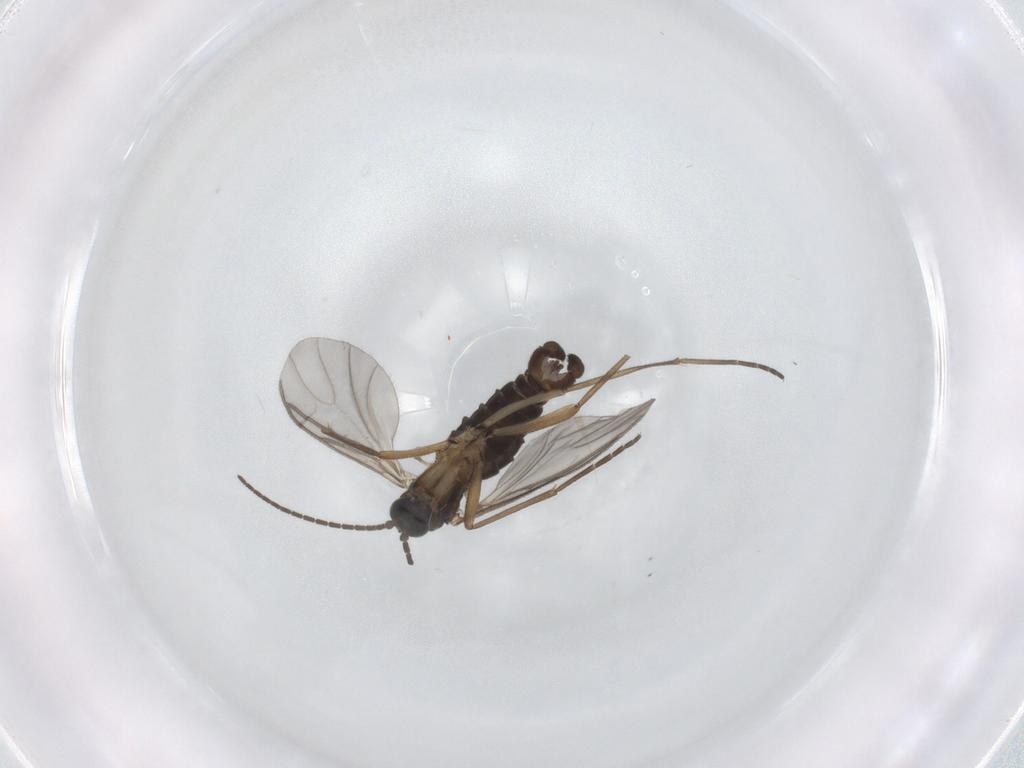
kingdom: Animalia
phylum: Arthropoda
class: Insecta
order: Diptera
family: Sciaridae
